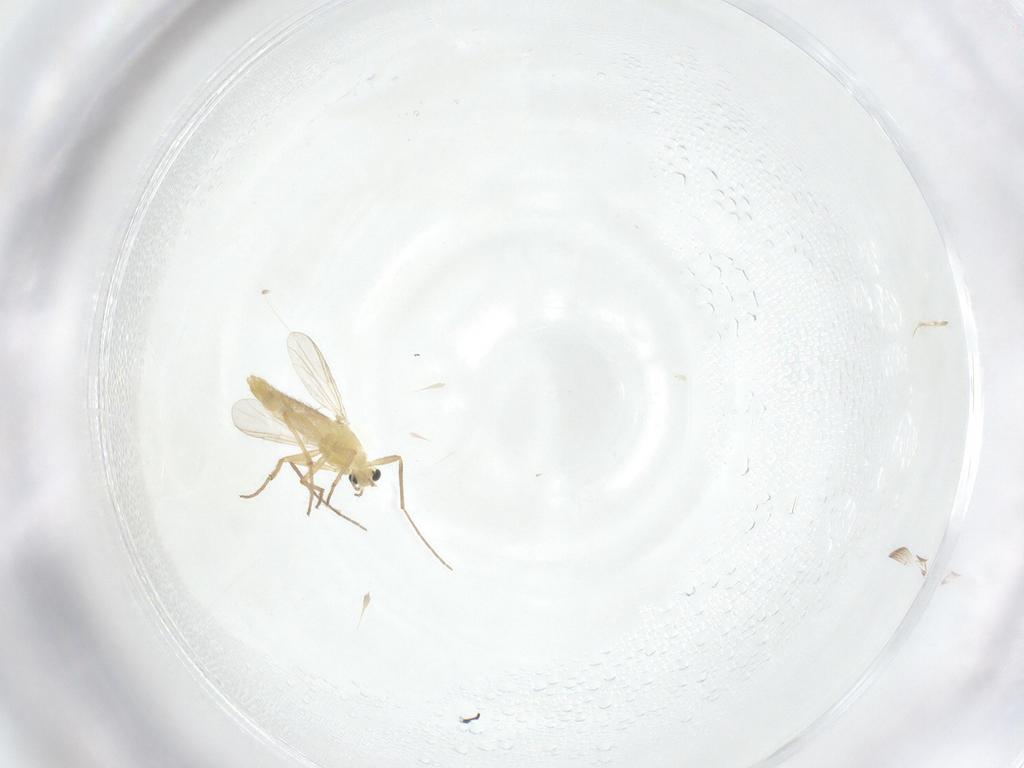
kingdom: Animalia
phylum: Arthropoda
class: Insecta
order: Diptera
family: Chironomidae
